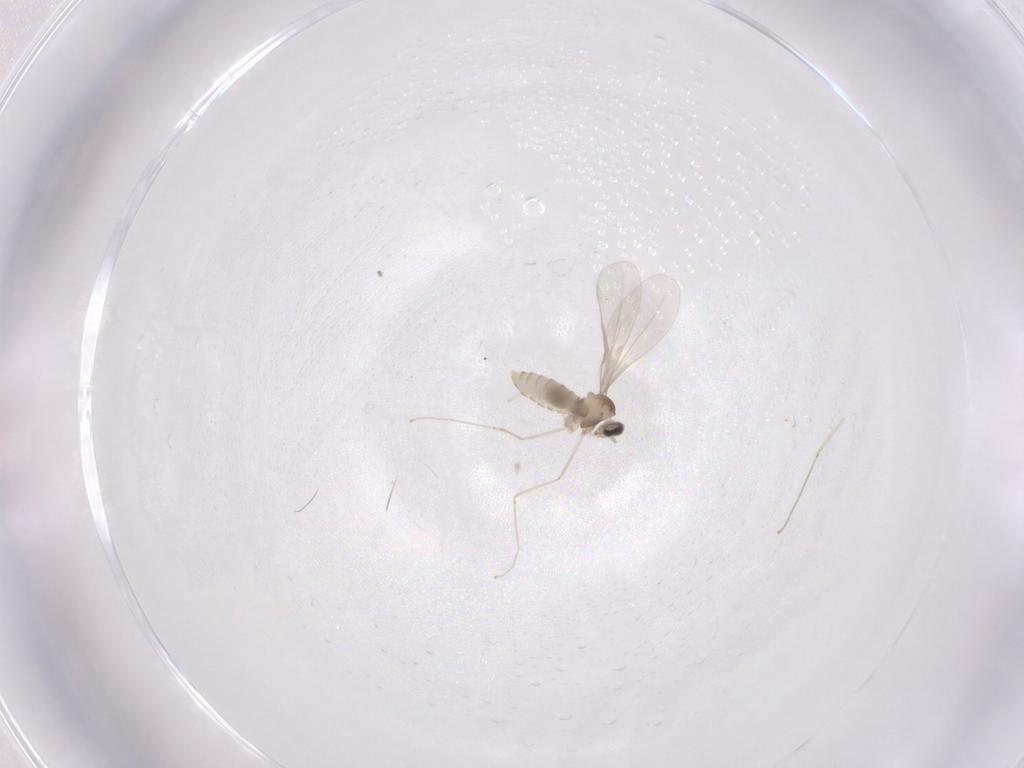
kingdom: Animalia
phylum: Arthropoda
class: Insecta
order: Diptera
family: Cecidomyiidae
